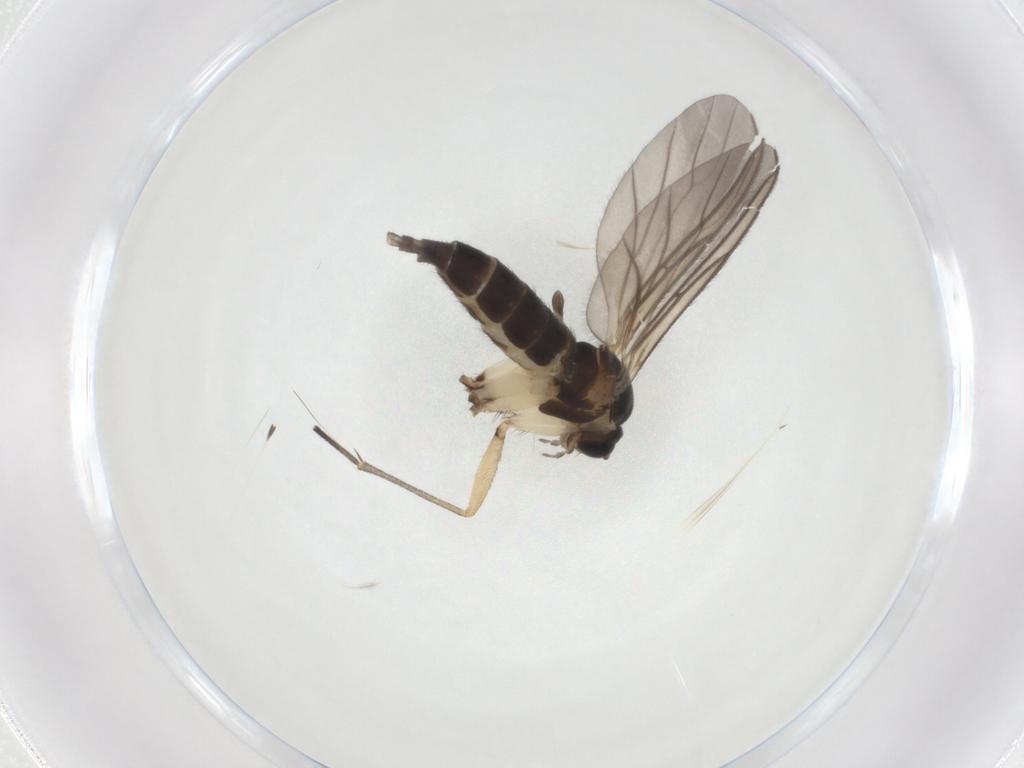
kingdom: Animalia
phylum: Arthropoda
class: Insecta
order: Diptera
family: Sciaridae
